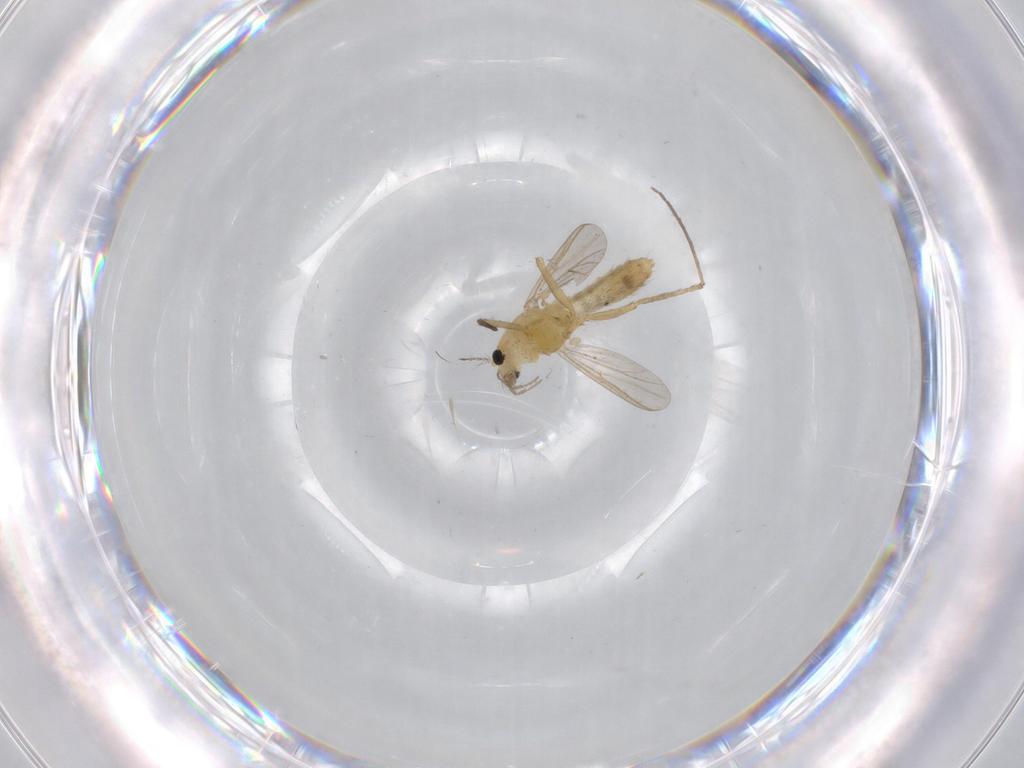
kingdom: Animalia
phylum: Arthropoda
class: Insecta
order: Diptera
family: Chironomidae
